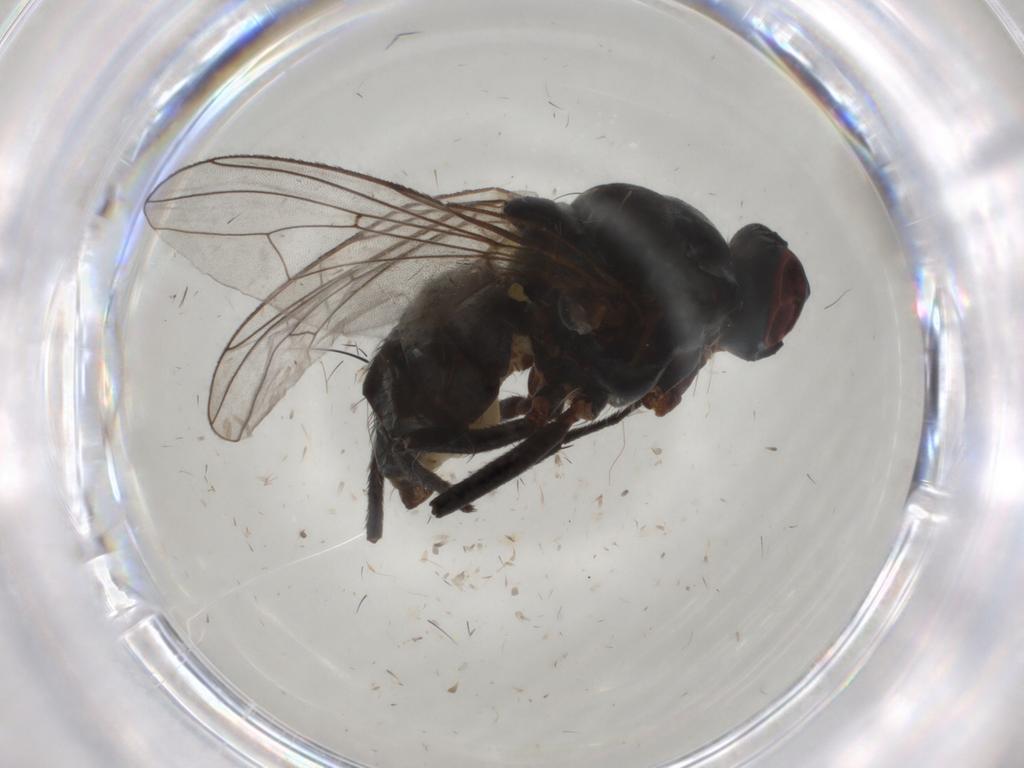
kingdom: Animalia
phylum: Arthropoda
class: Insecta
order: Diptera
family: Anthomyiidae
